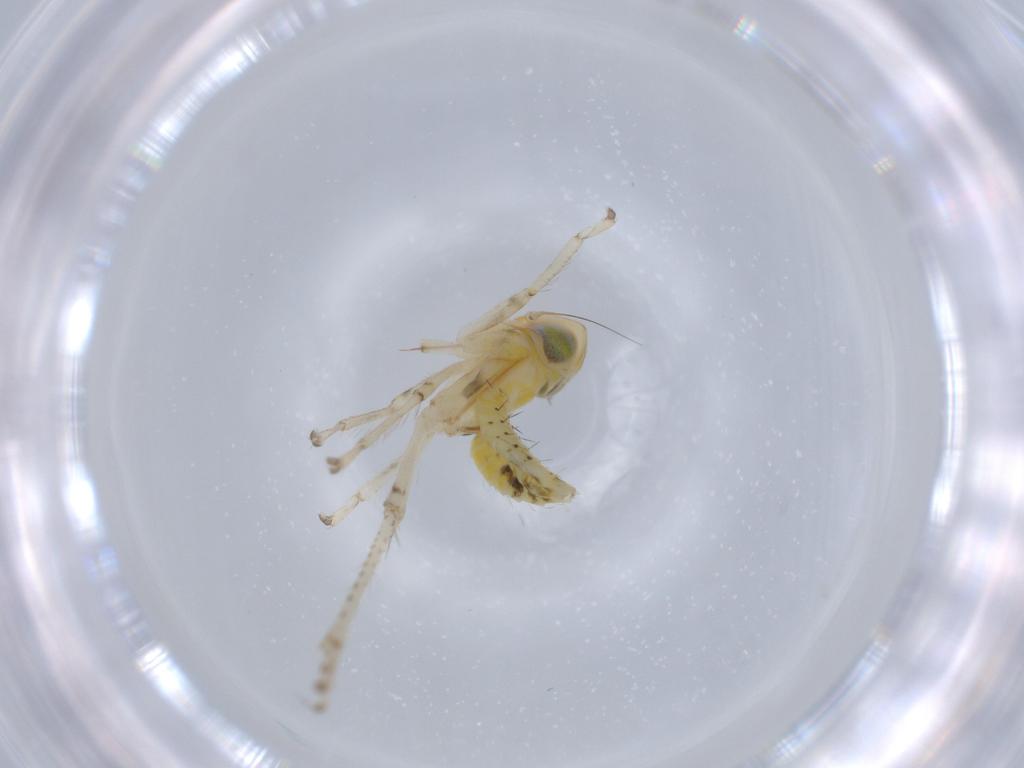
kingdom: Animalia
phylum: Arthropoda
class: Insecta
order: Hemiptera
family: Cicadellidae
